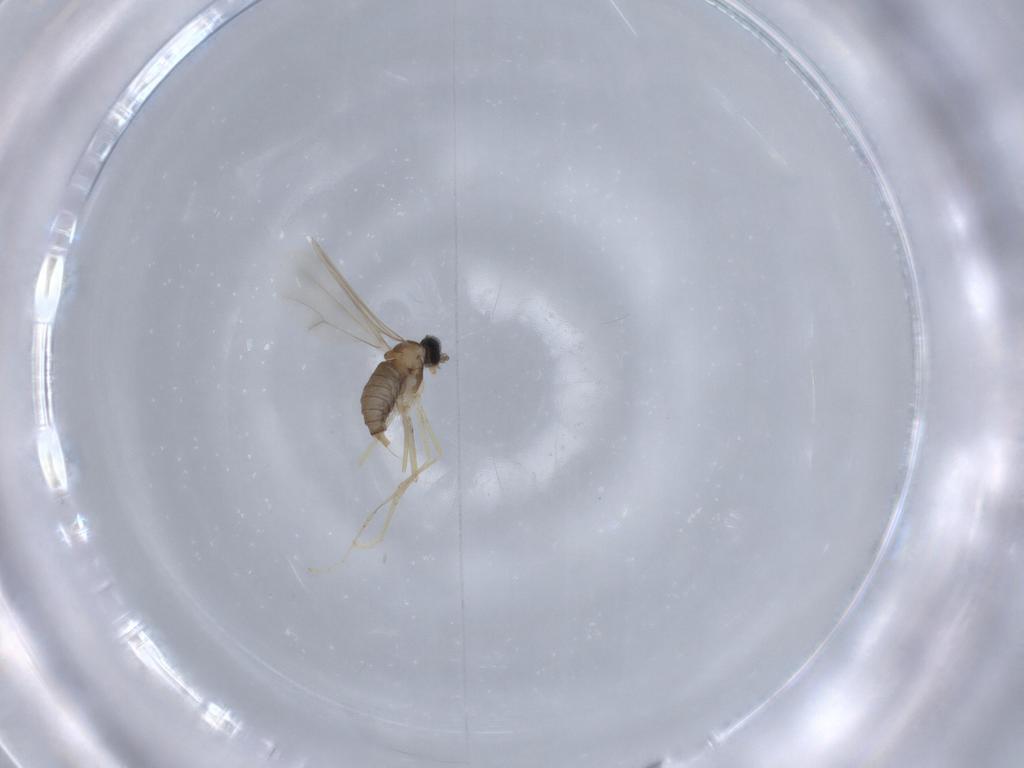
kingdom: Animalia
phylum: Arthropoda
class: Insecta
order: Diptera
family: Cecidomyiidae
